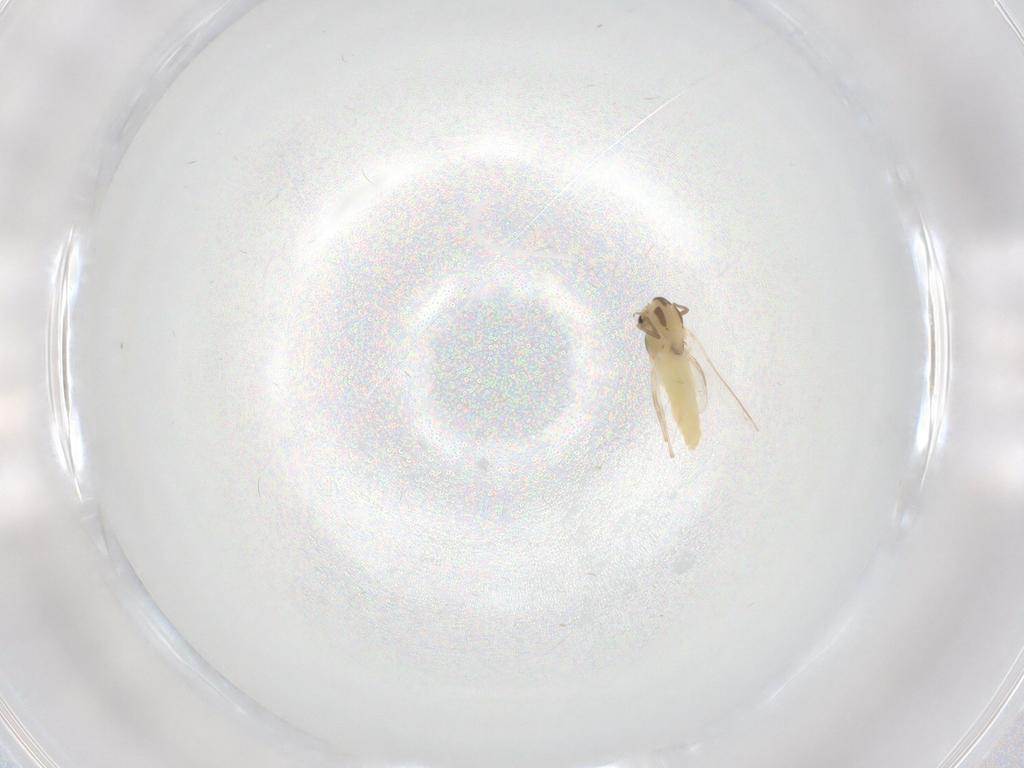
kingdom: Animalia
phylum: Arthropoda
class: Insecta
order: Diptera
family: Chironomidae
